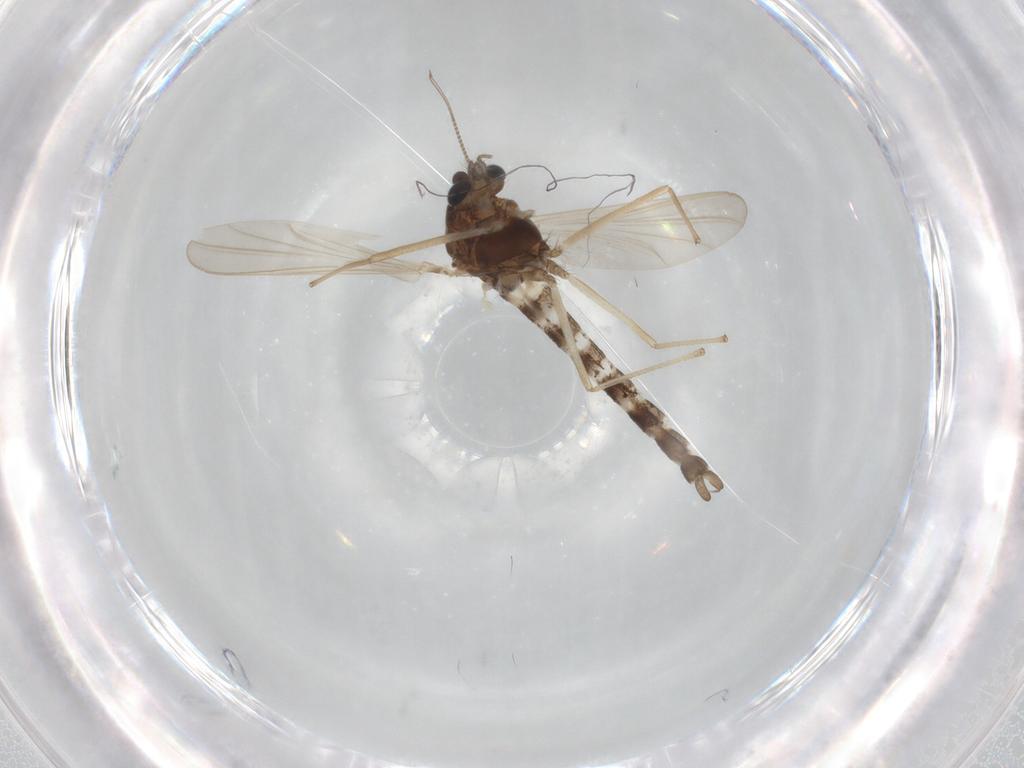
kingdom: Animalia
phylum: Arthropoda
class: Insecta
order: Diptera
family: Chironomidae
